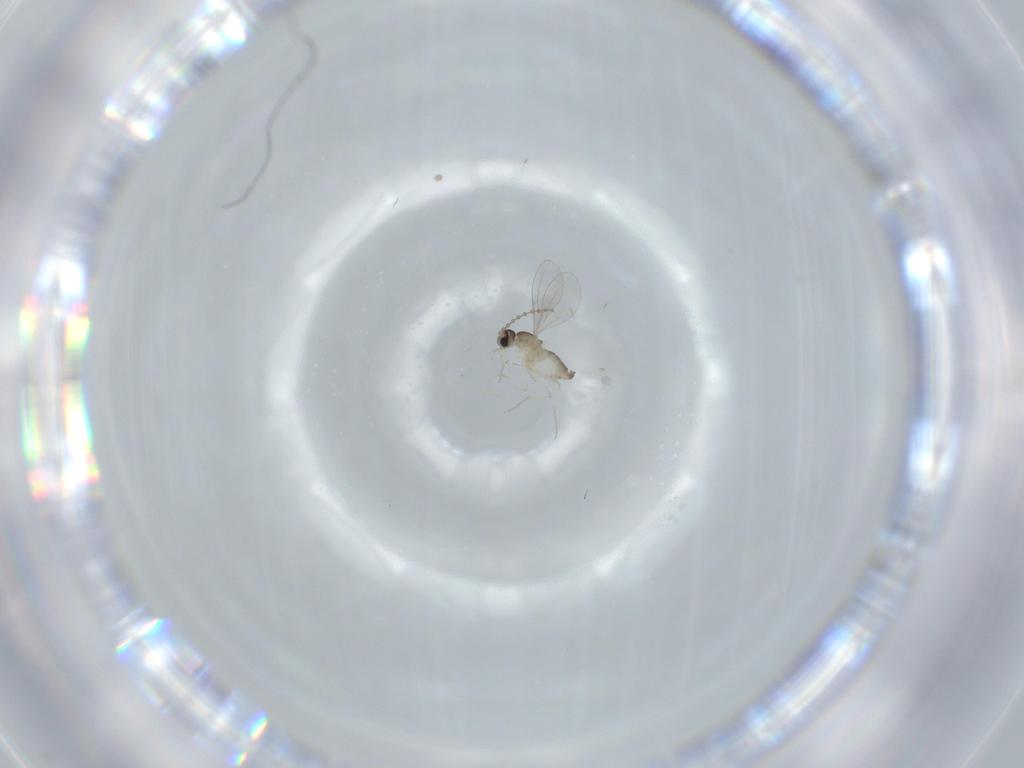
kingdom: Animalia
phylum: Arthropoda
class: Insecta
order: Diptera
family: Cecidomyiidae
